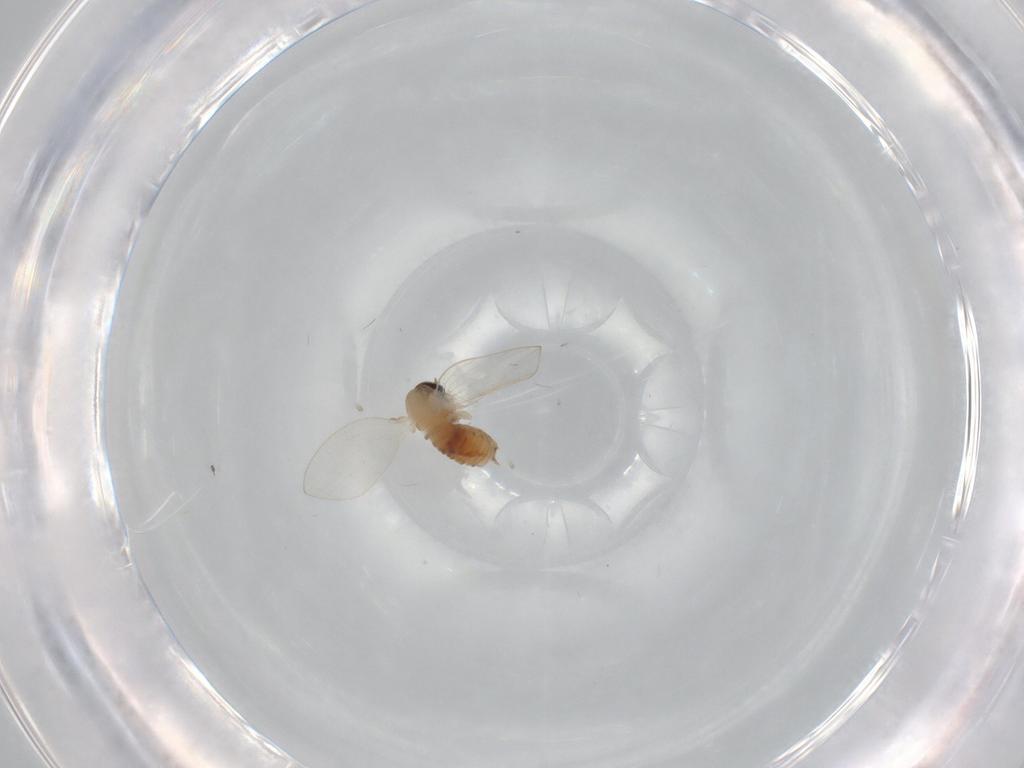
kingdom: Animalia
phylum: Arthropoda
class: Insecta
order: Diptera
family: Psychodidae
